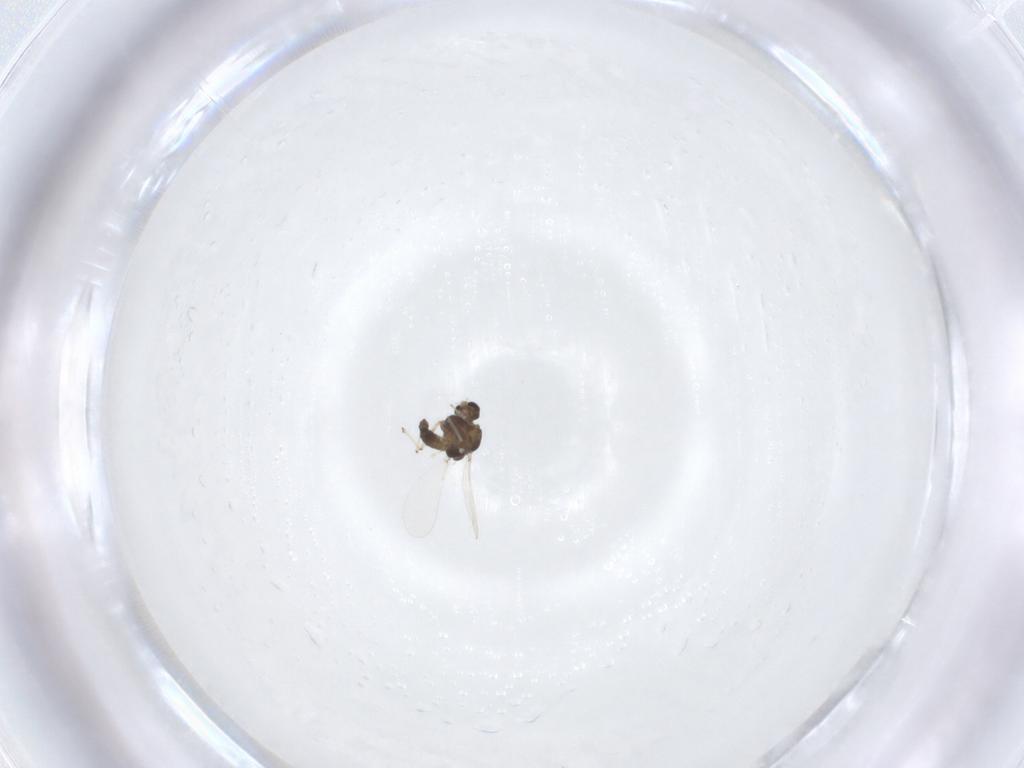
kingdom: Animalia
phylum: Arthropoda
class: Insecta
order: Diptera
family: Chironomidae
